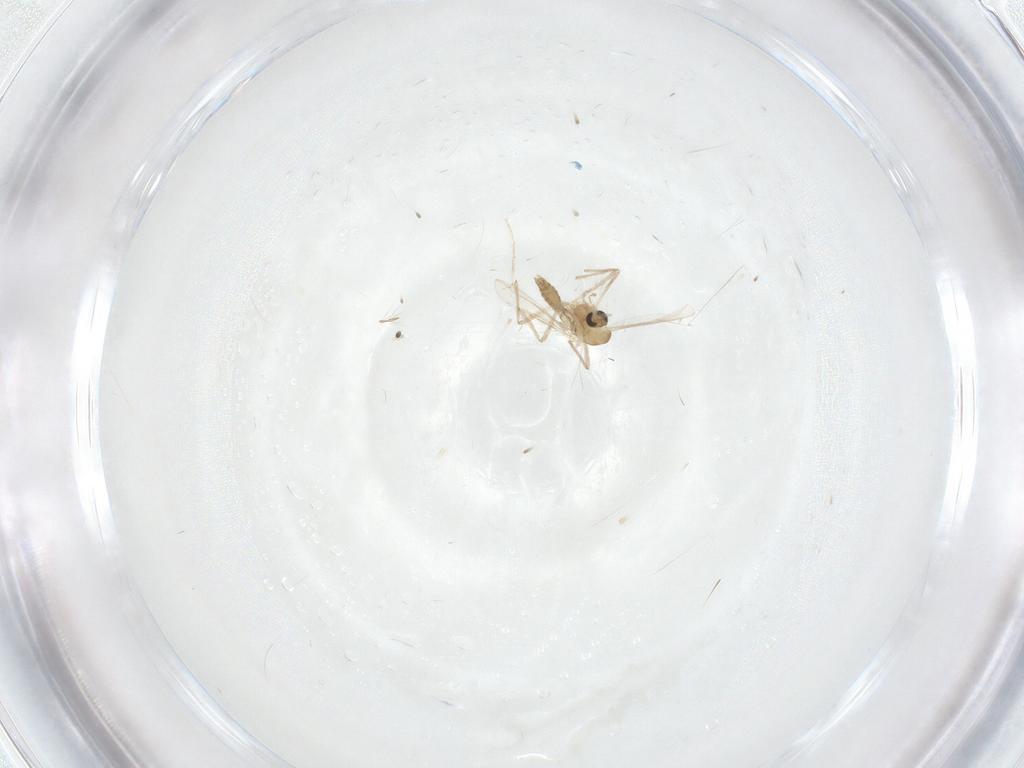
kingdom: Animalia
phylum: Arthropoda
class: Insecta
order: Diptera
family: Chironomidae
